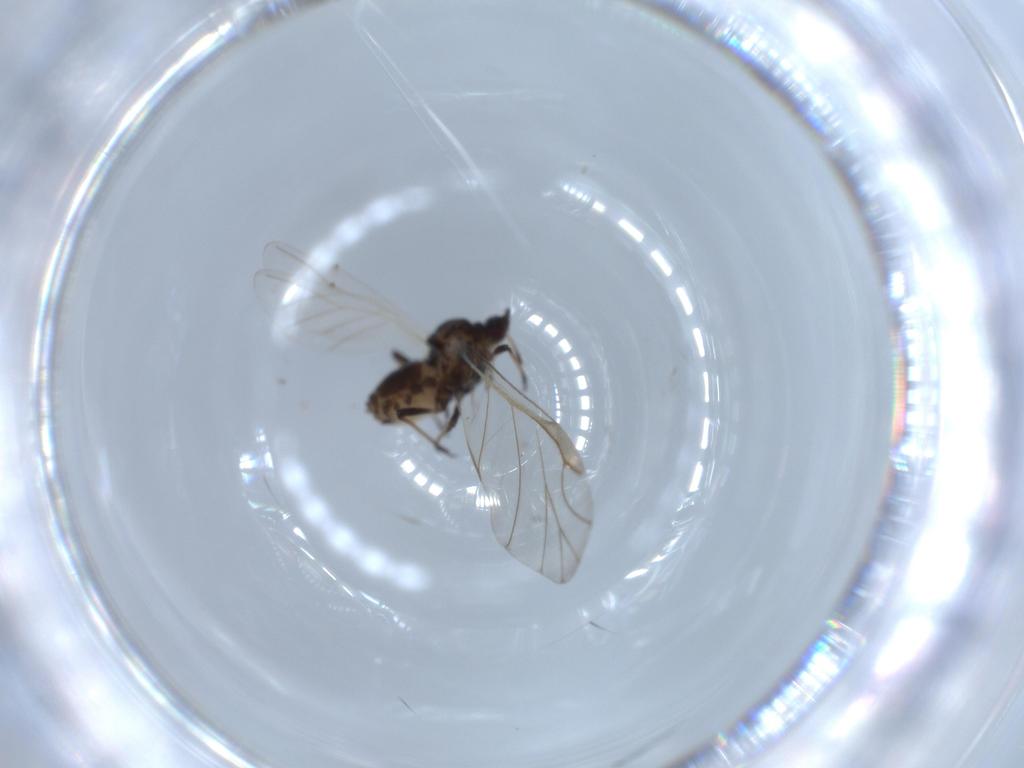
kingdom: Animalia
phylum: Arthropoda
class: Insecta
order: Hemiptera
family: Aphididae
